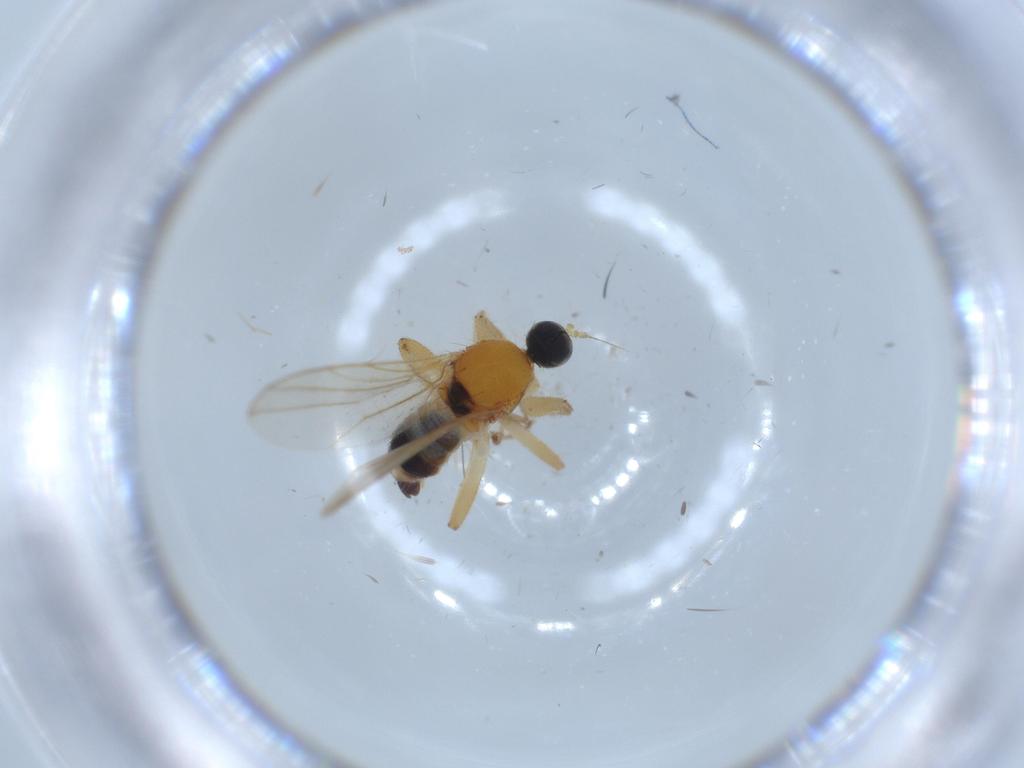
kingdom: Animalia
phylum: Arthropoda
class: Insecta
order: Diptera
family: Hybotidae
